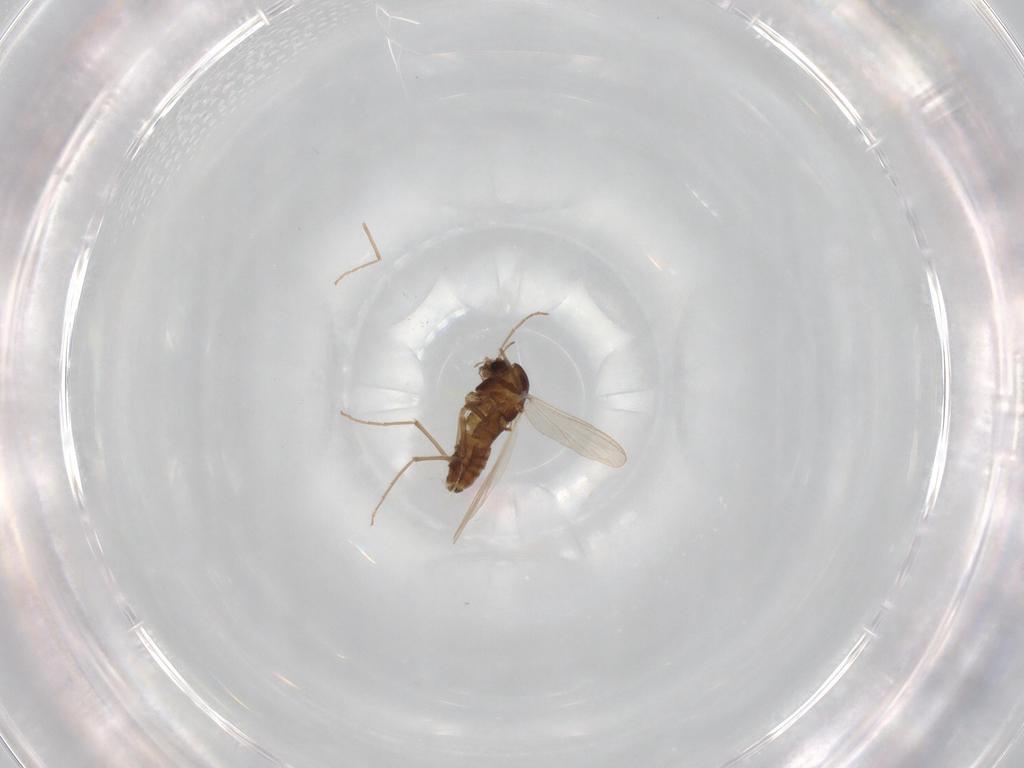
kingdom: Animalia
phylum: Arthropoda
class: Insecta
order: Diptera
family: Chironomidae
